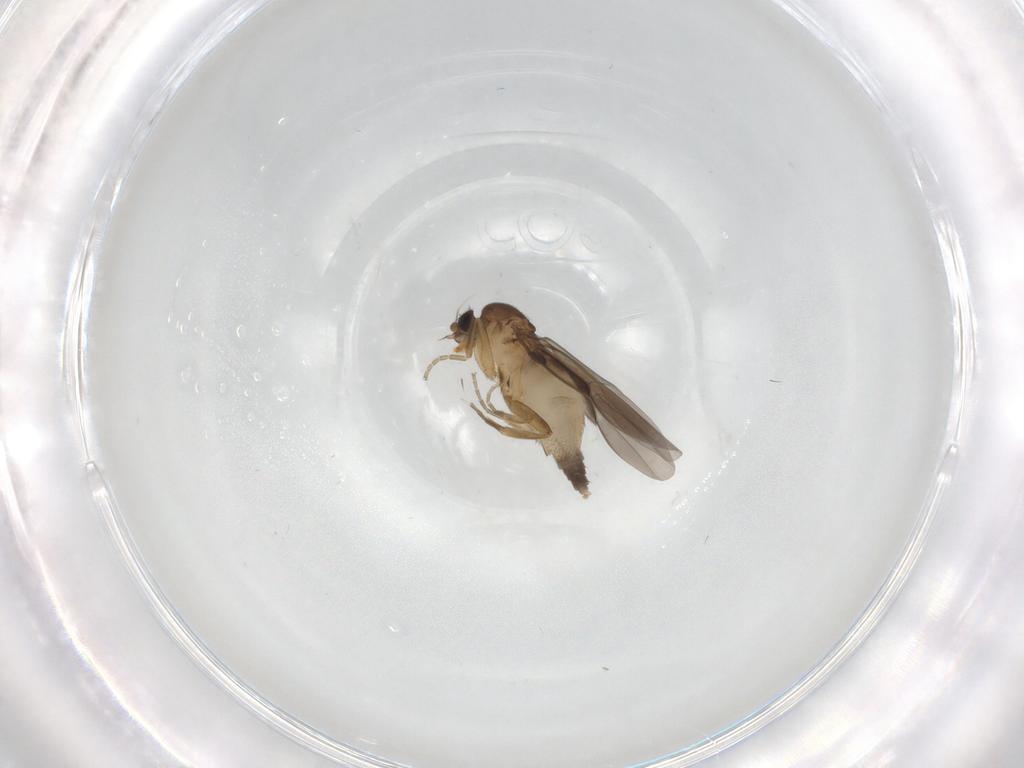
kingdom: Animalia
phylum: Arthropoda
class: Insecta
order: Diptera
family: Phoridae
